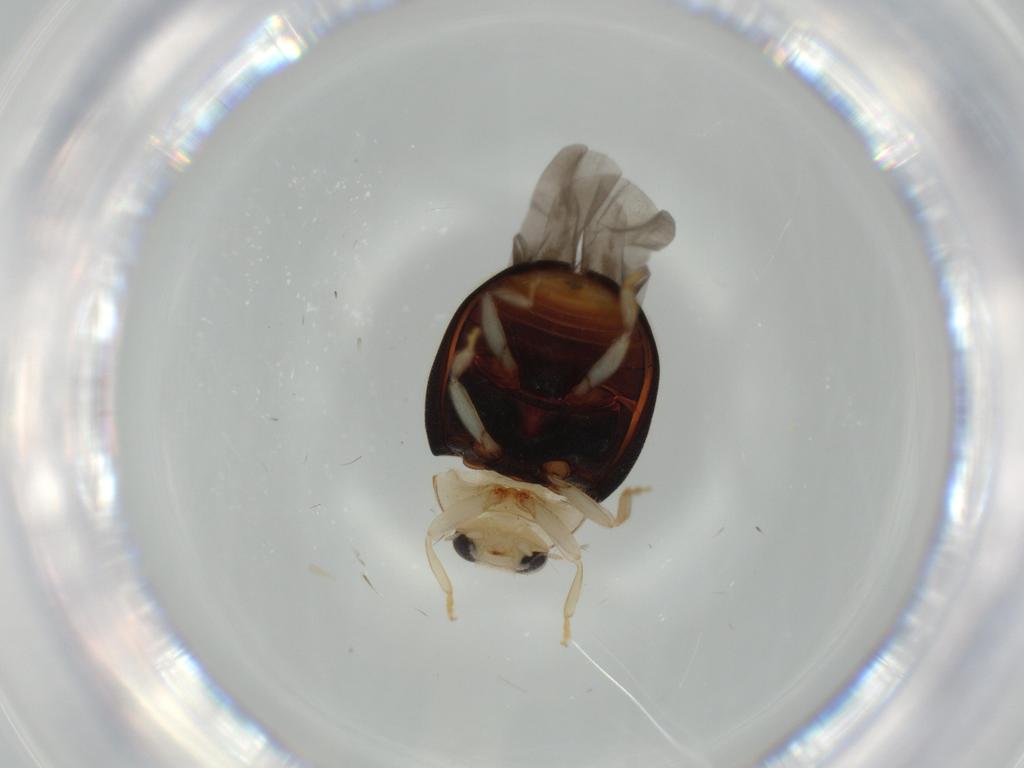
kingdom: Animalia
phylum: Arthropoda
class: Insecta
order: Coleoptera
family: Coccinellidae
